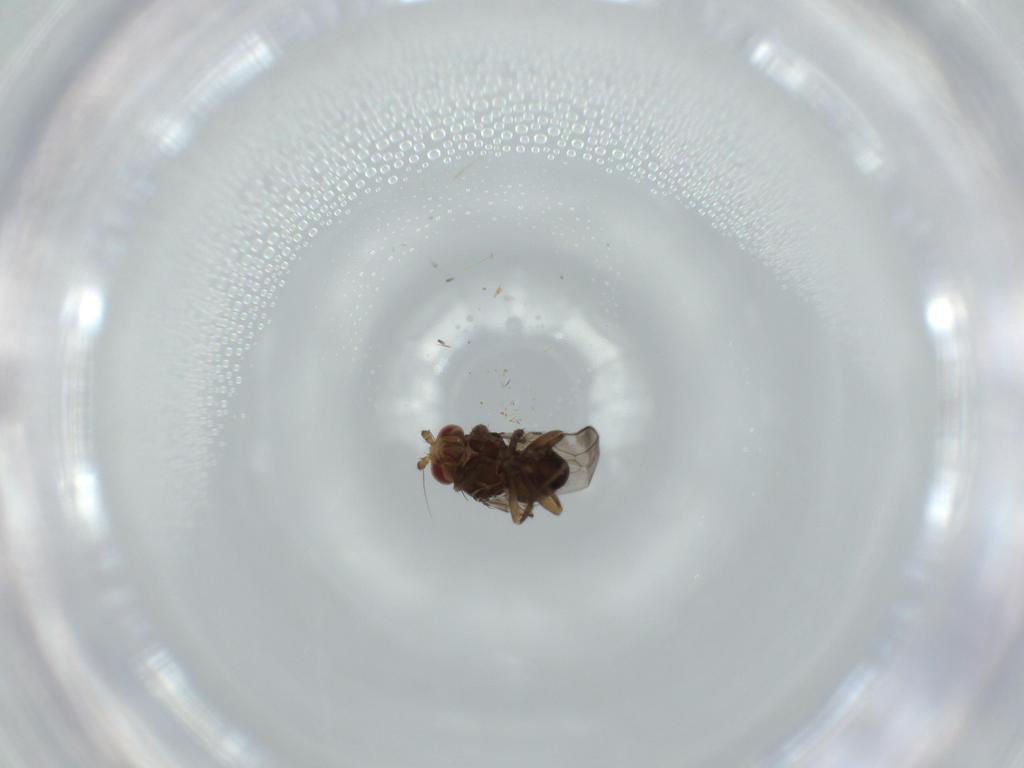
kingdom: Animalia
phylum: Arthropoda
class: Insecta
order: Diptera
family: Sphaeroceridae
